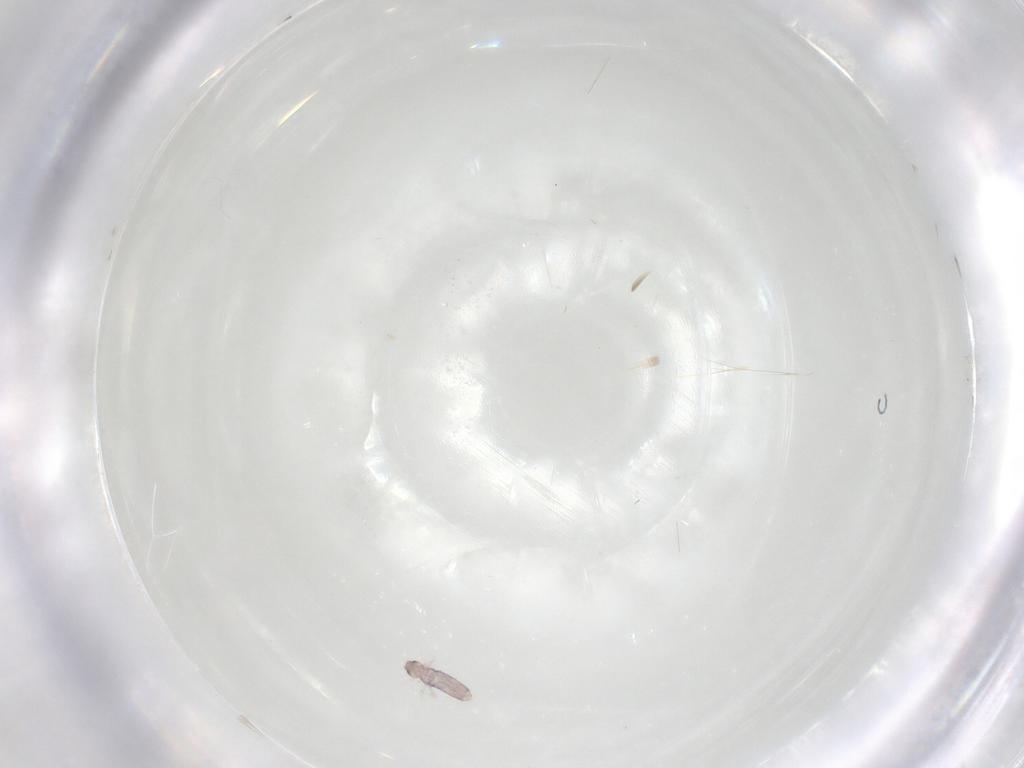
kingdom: Animalia
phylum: Arthropoda
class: Collembola
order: Entomobryomorpha
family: Entomobryidae
